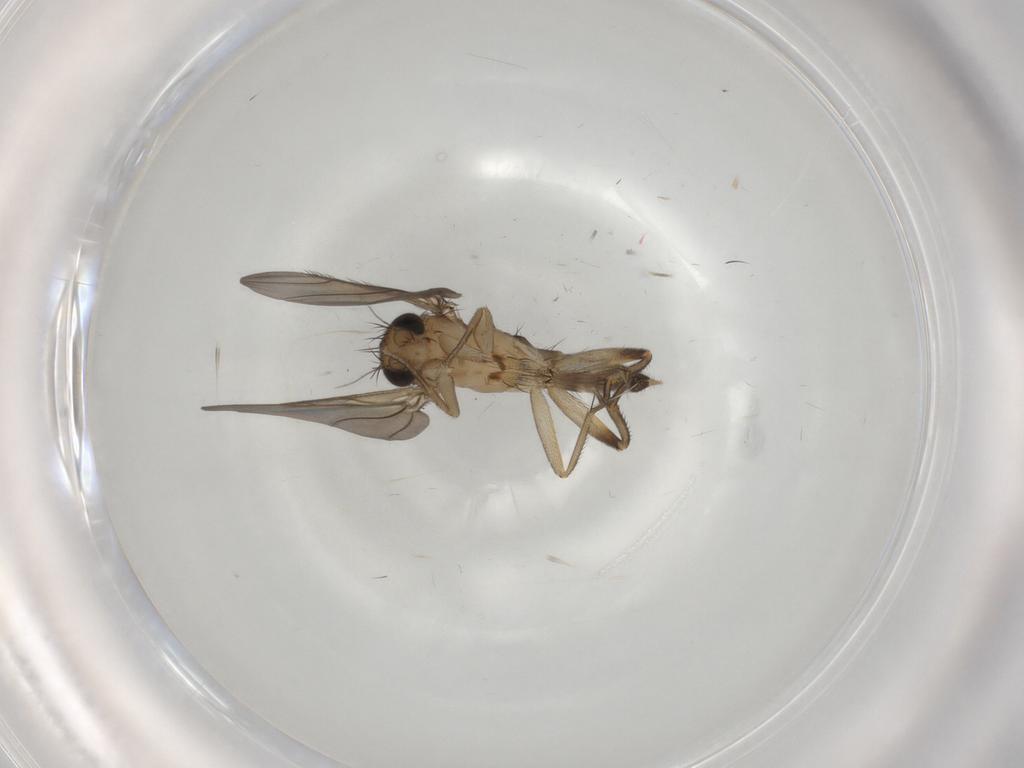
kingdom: Animalia
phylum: Arthropoda
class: Insecta
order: Diptera
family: Phoridae
